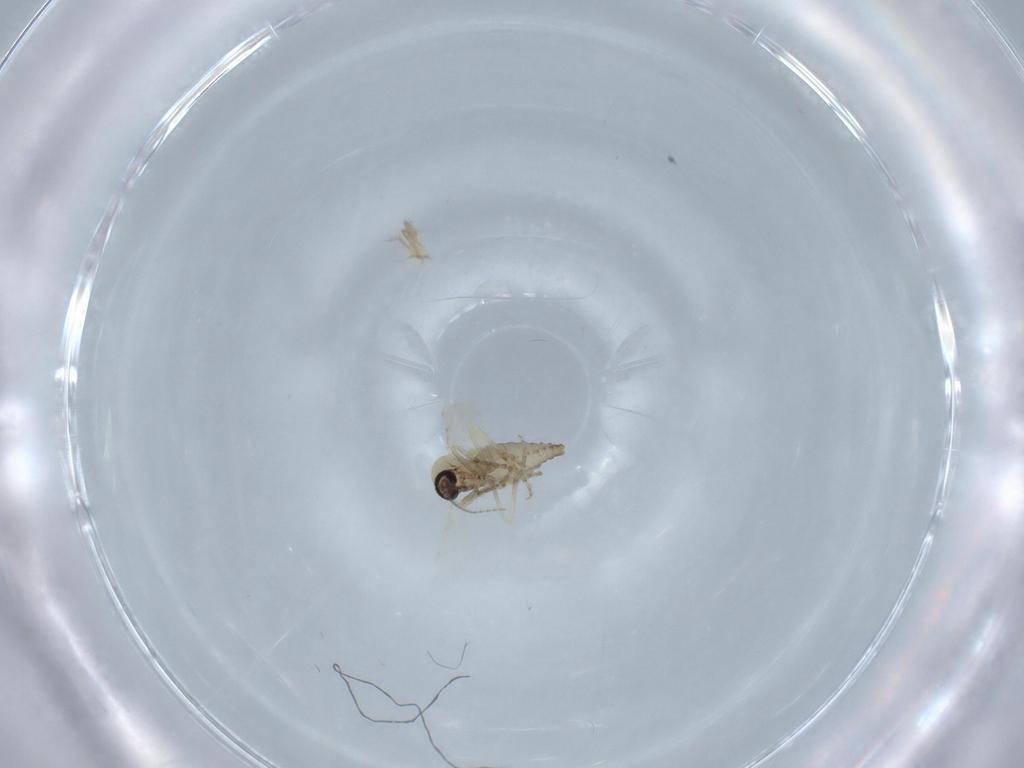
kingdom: Animalia
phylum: Arthropoda
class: Insecta
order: Diptera
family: Ceratopogonidae
